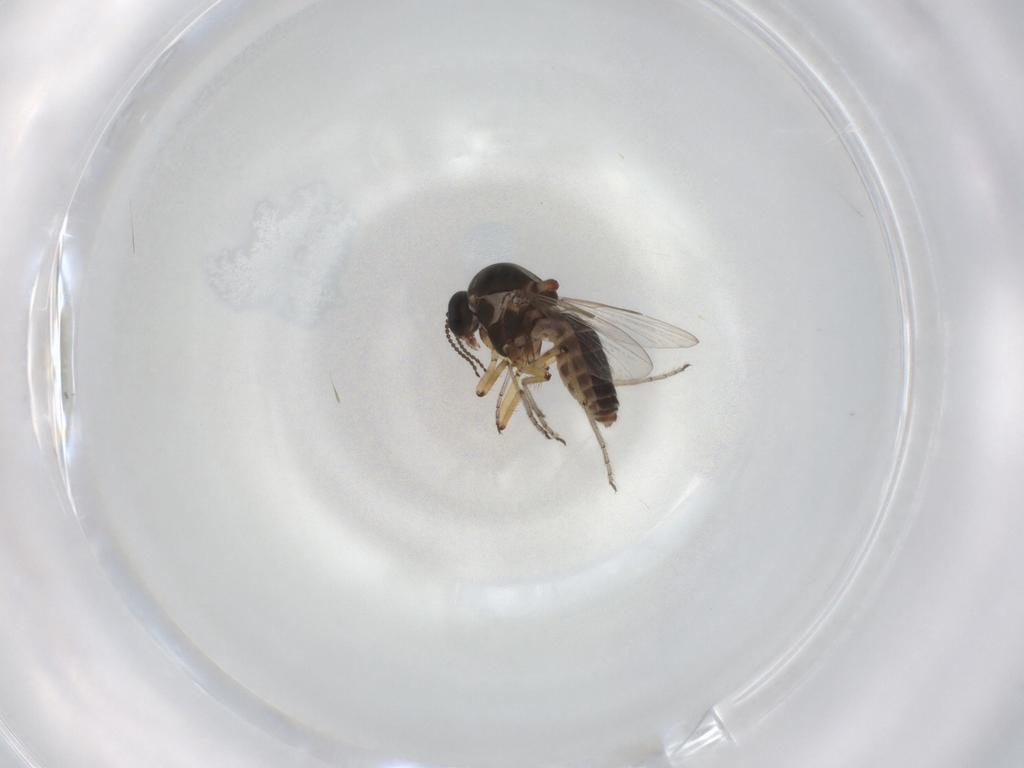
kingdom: Animalia
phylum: Arthropoda
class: Insecta
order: Diptera
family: Ceratopogonidae
